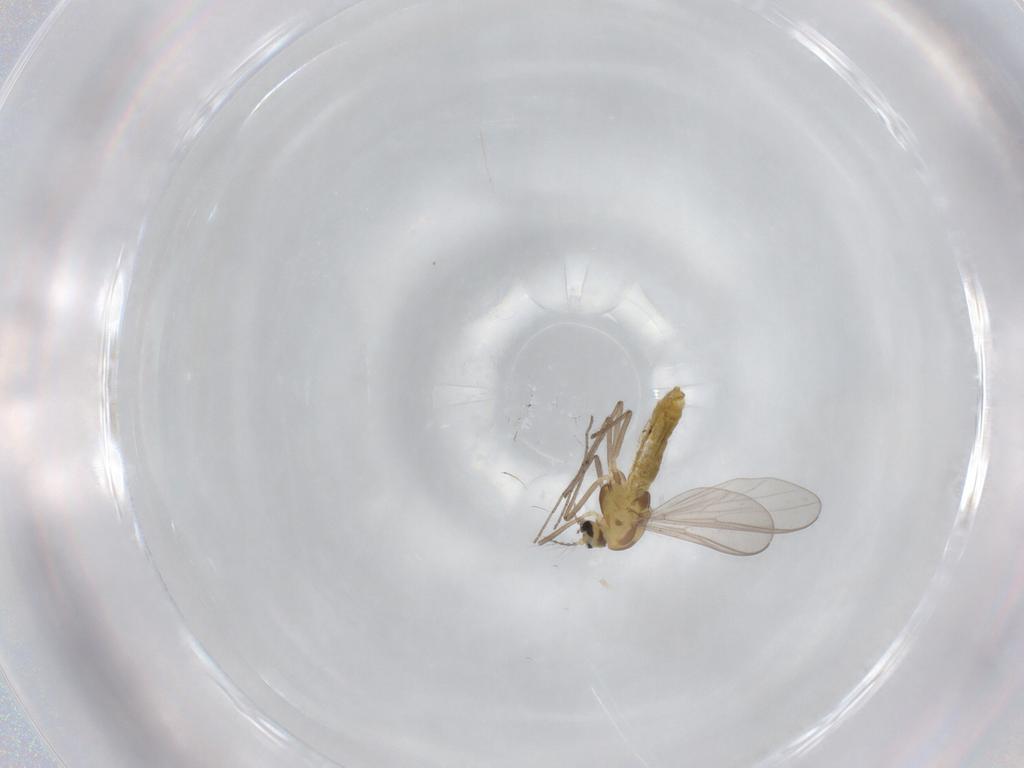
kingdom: Animalia
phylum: Arthropoda
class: Insecta
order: Diptera
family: Chironomidae
